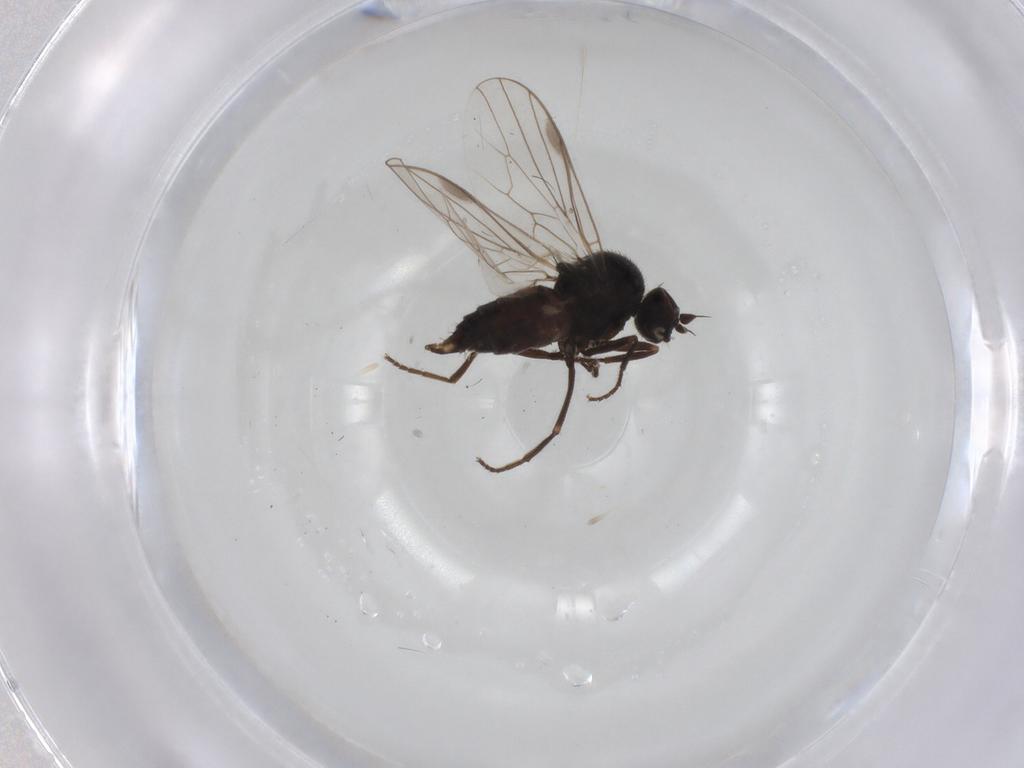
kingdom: Animalia
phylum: Arthropoda
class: Insecta
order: Diptera
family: Hybotidae
